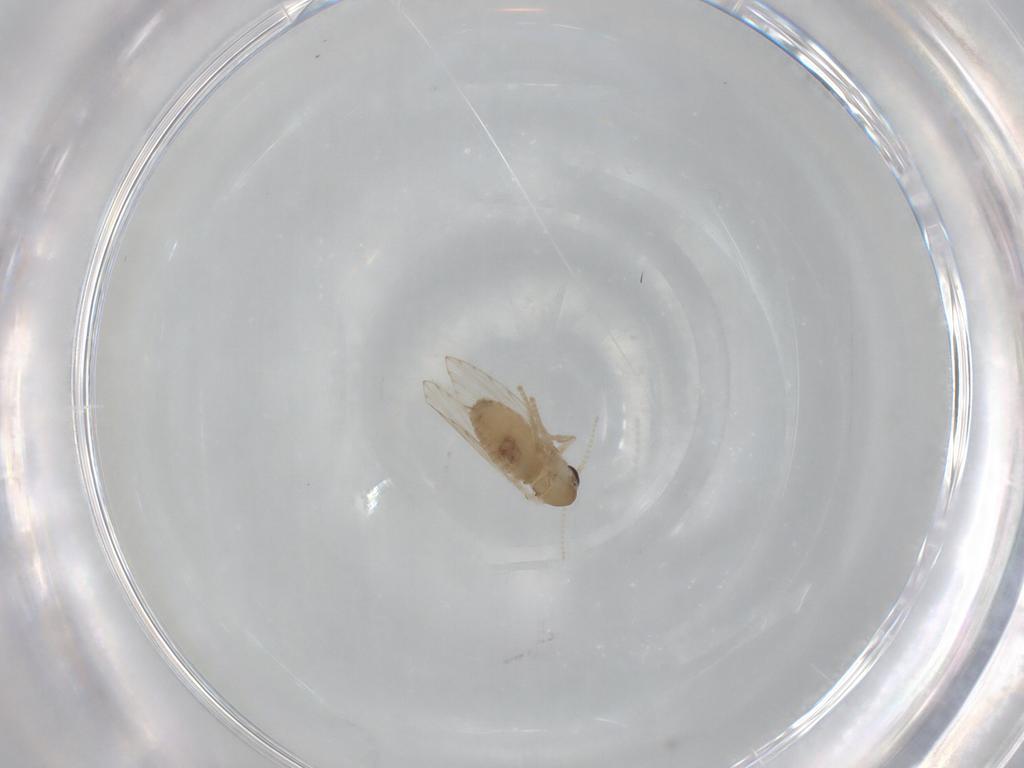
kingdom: Animalia
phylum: Arthropoda
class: Insecta
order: Diptera
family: Psychodidae
